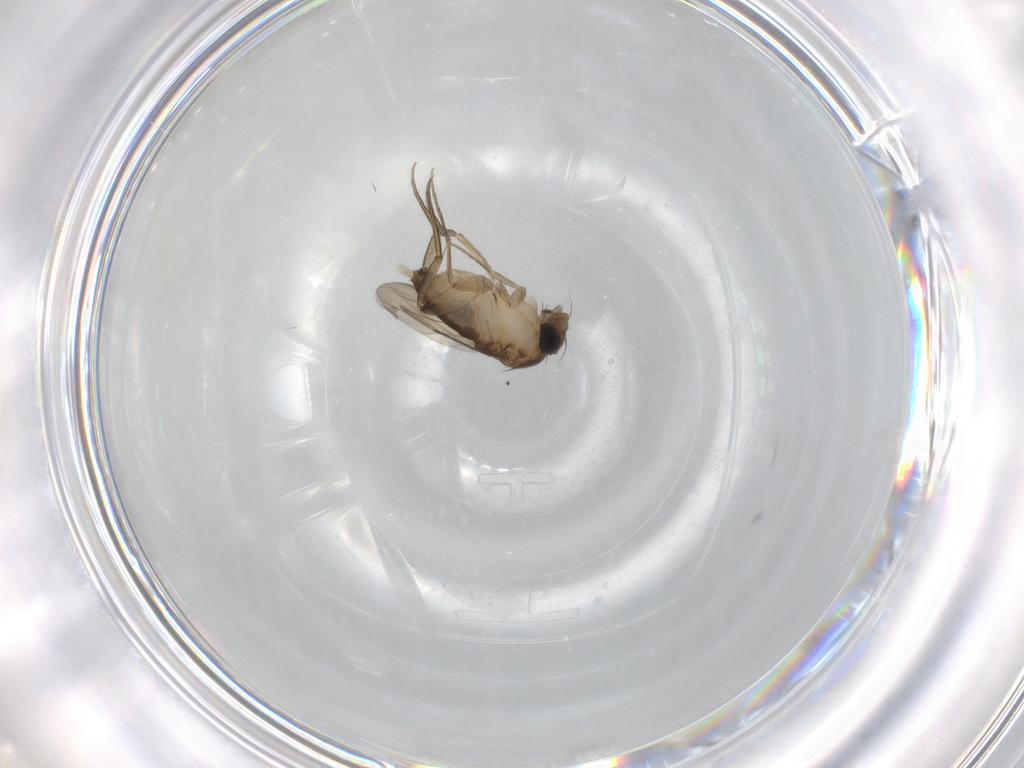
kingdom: Animalia
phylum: Arthropoda
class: Insecta
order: Diptera
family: Phoridae
